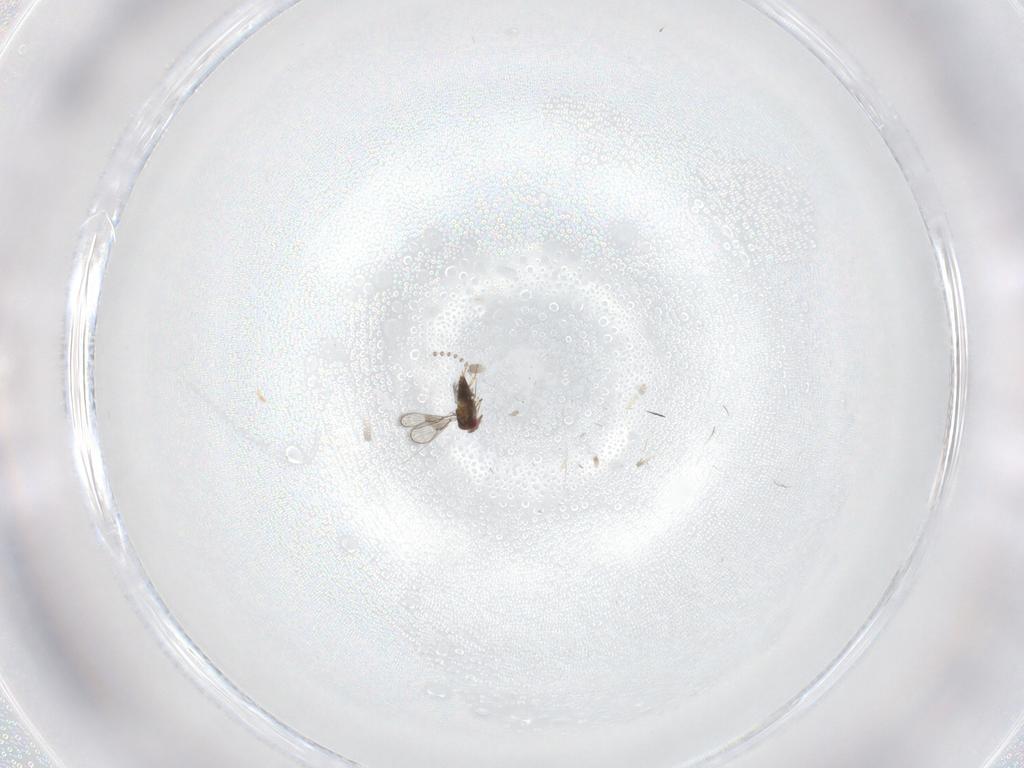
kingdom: Animalia
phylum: Arthropoda
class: Insecta
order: Hymenoptera
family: Figitidae
